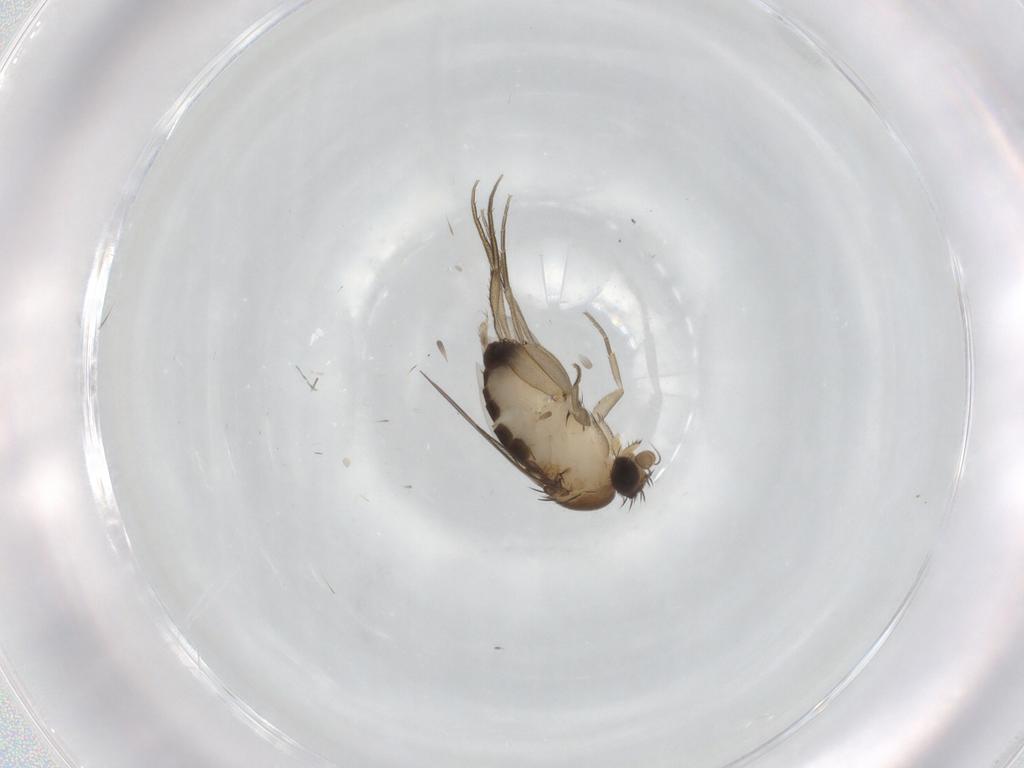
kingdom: Animalia
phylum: Arthropoda
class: Insecta
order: Diptera
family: Phoridae
